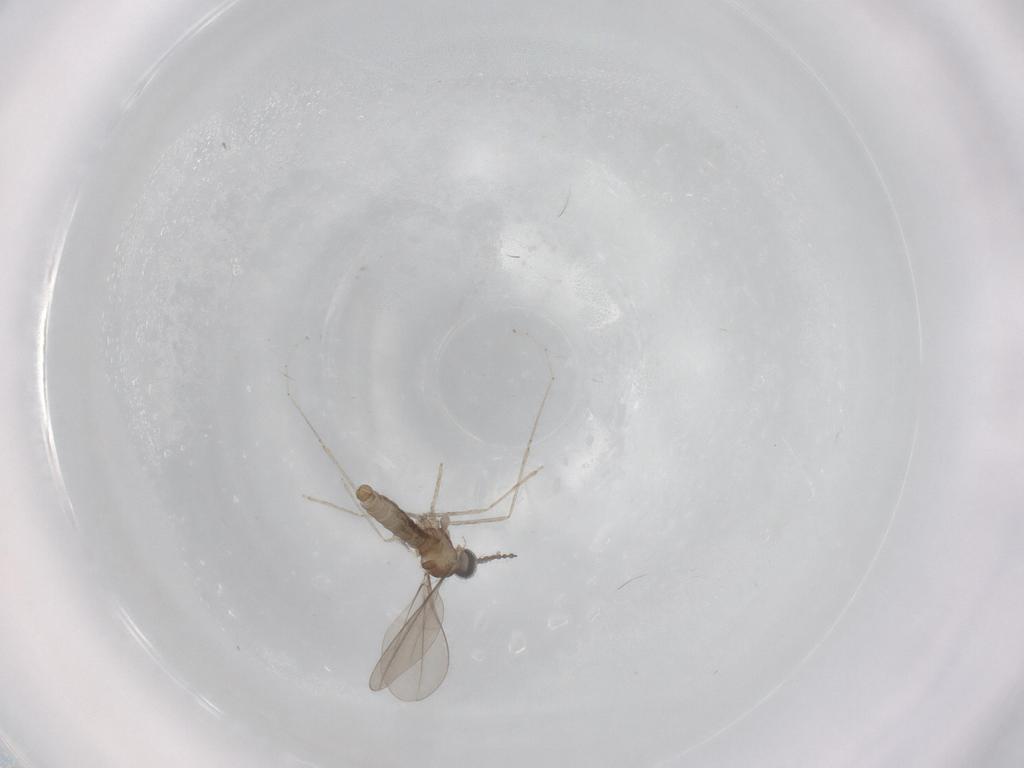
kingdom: Animalia
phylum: Arthropoda
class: Insecta
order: Diptera
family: Cecidomyiidae
